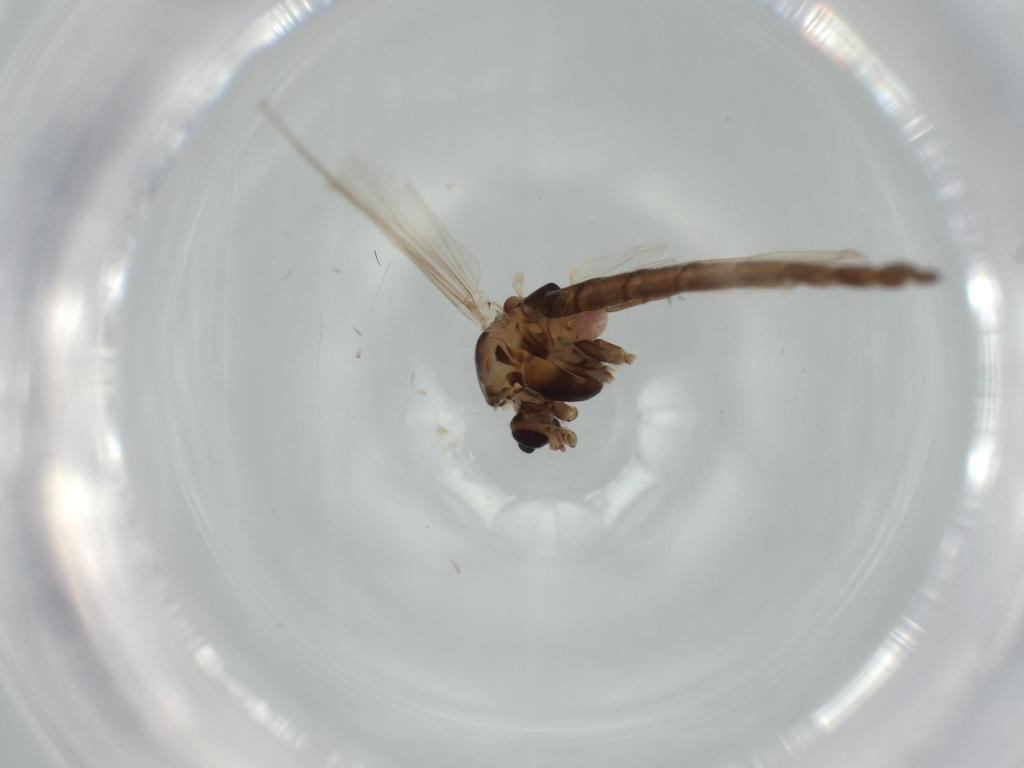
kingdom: Animalia
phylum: Arthropoda
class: Insecta
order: Diptera
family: Chironomidae
